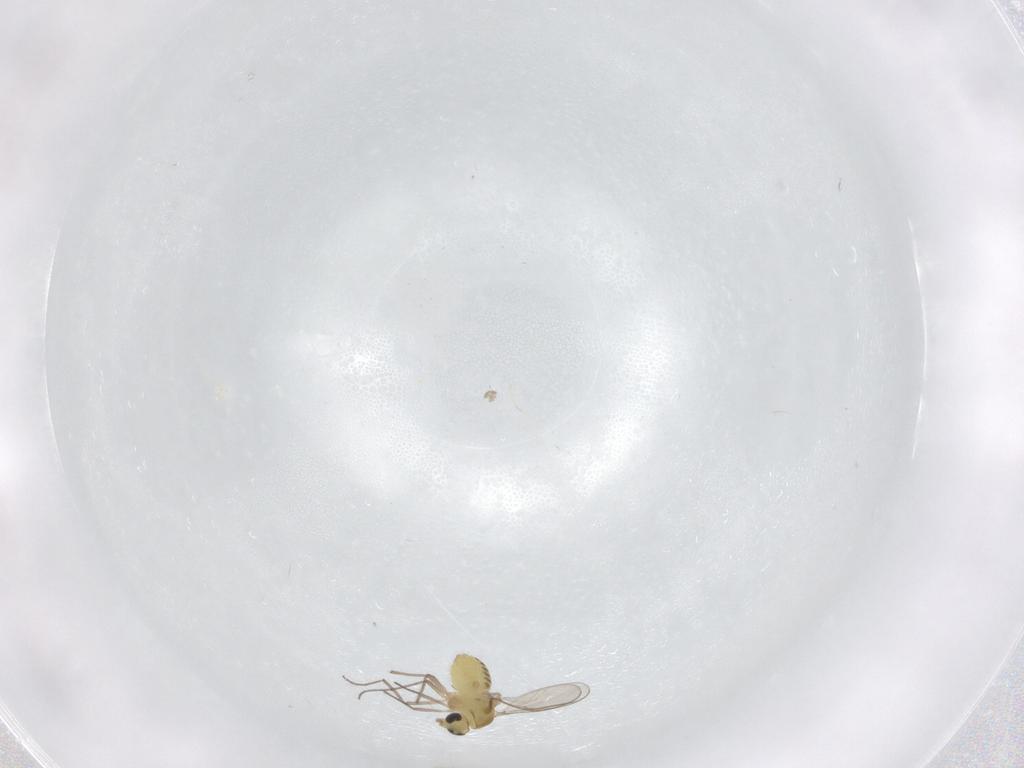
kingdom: Animalia
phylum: Arthropoda
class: Insecta
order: Diptera
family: Chironomidae
